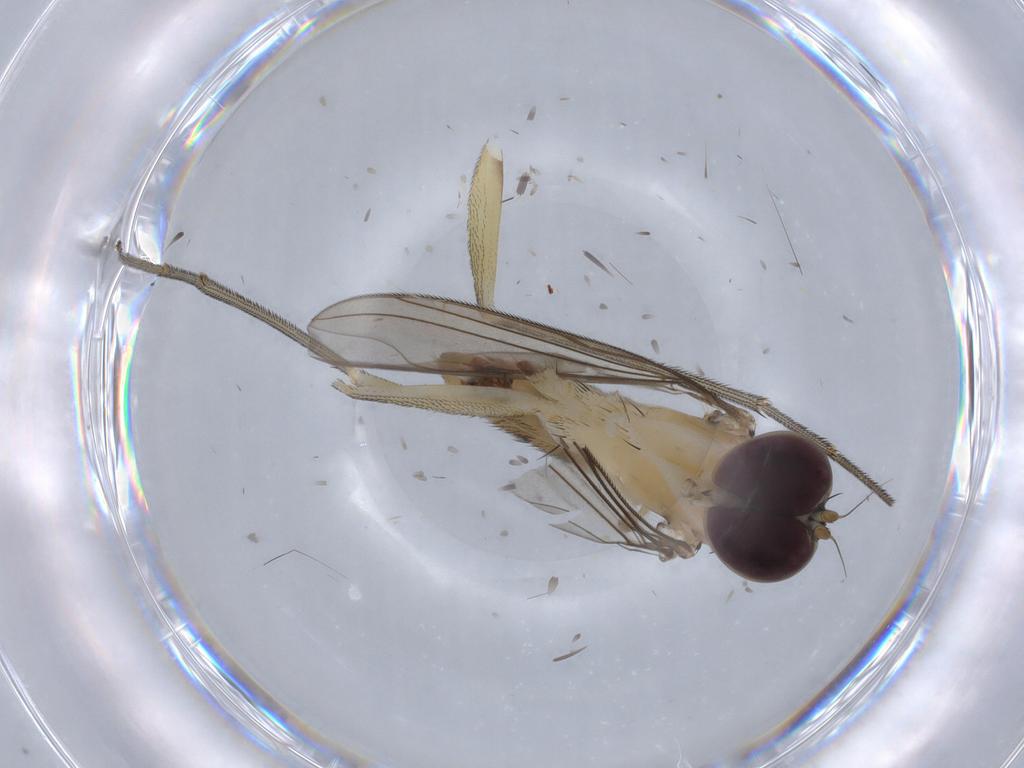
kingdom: Animalia
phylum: Arthropoda
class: Insecta
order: Diptera
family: Dolichopodidae
